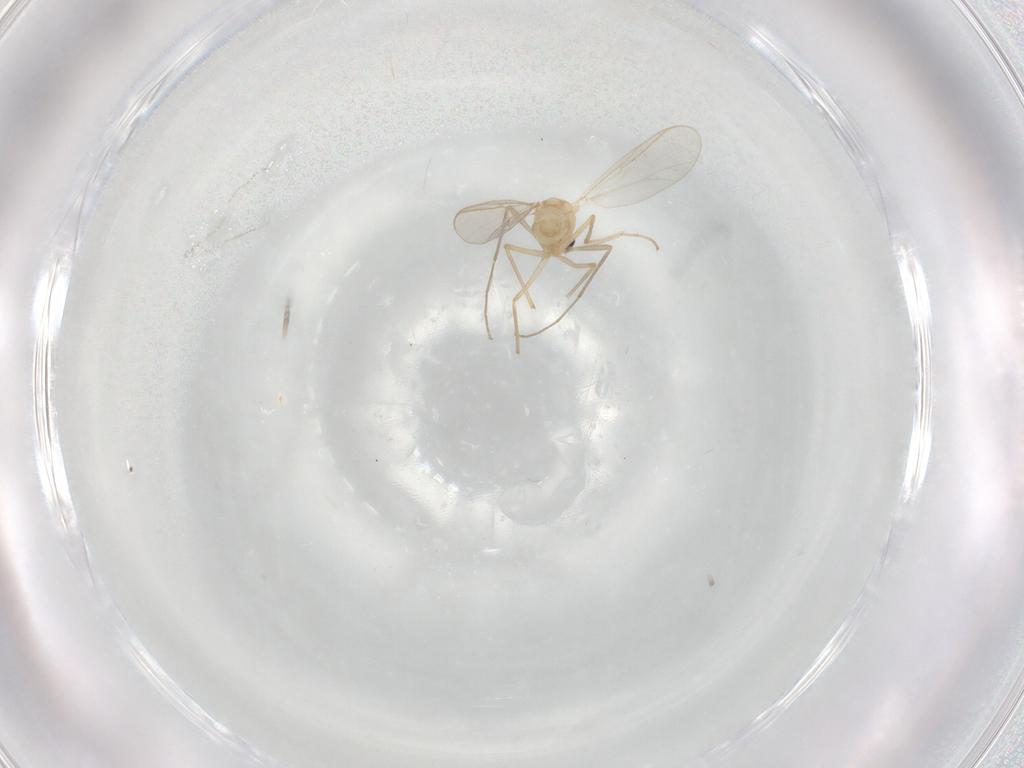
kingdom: Animalia
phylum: Arthropoda
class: Insecta
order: Diptera
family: Chironomidae
